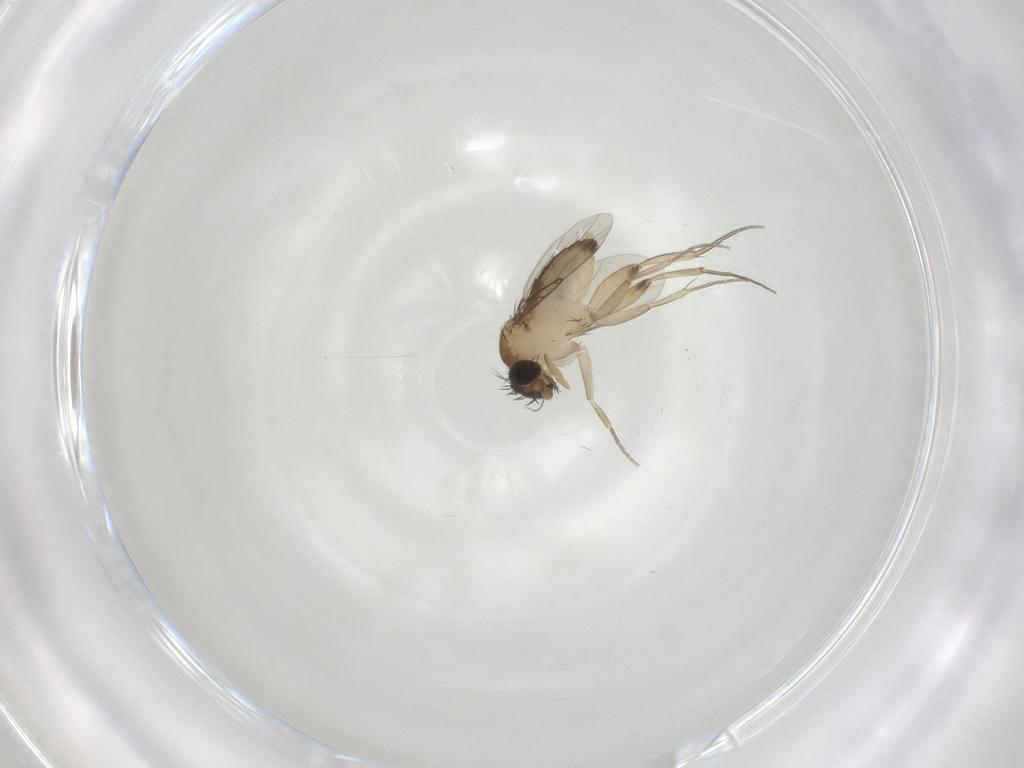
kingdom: Animalia
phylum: Arthropoda
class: Insecta
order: Diptera
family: Phoridae
